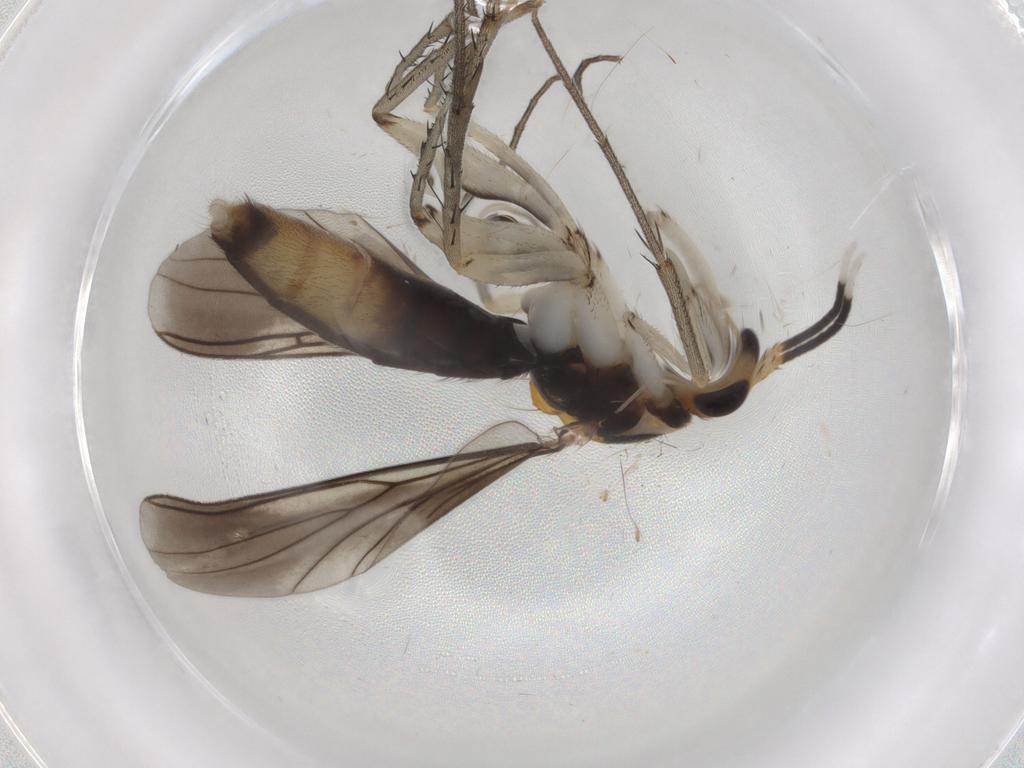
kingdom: Animalia
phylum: Arthropoda
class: Insecta
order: Diptera
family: Mycetophilidae
